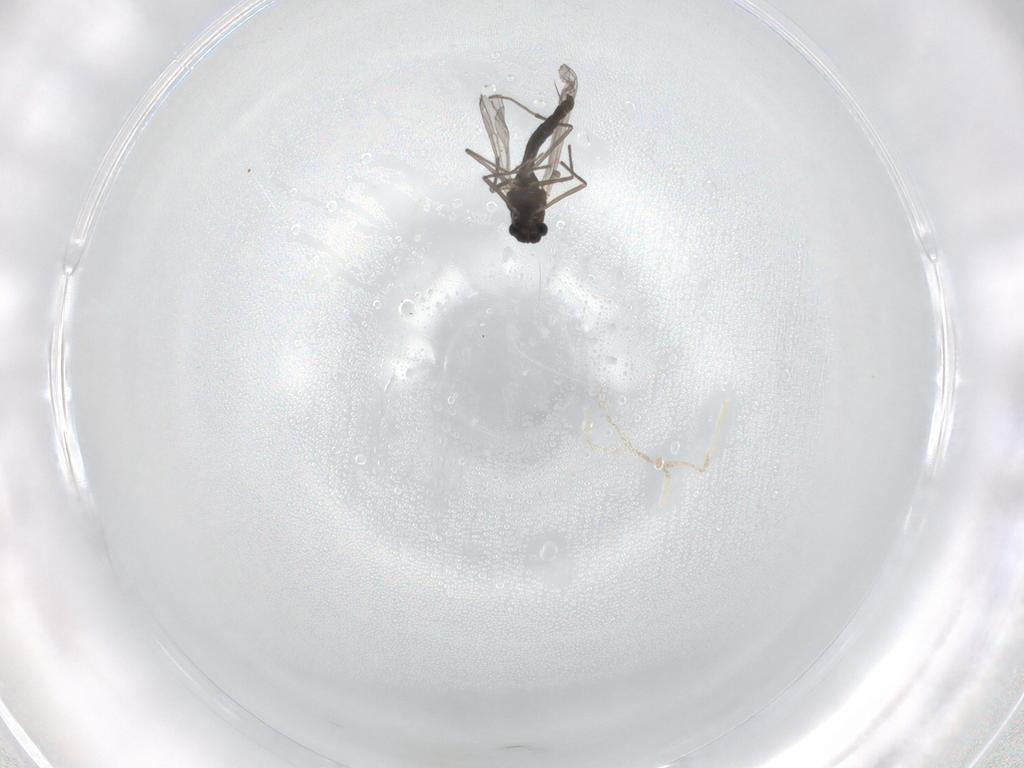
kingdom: Animalia
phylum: Arthropoda
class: Insecta
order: Diptera
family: Chironomidae
